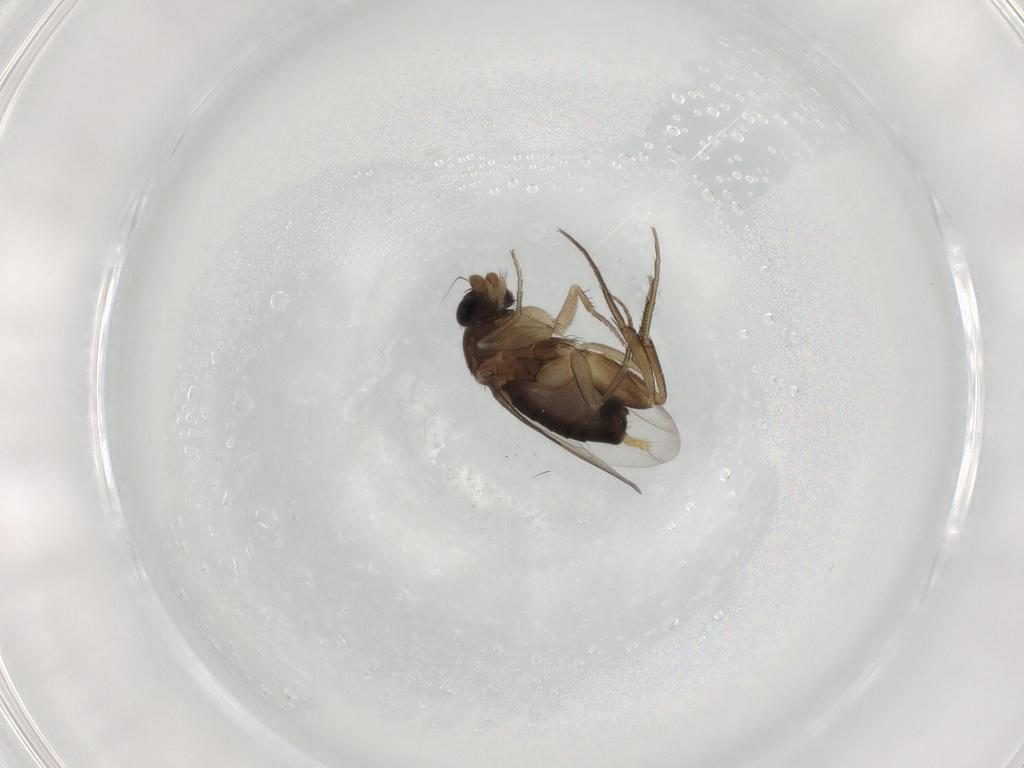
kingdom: Animalia
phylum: Arthropoda
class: Insecta
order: Diptera
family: Phoridae
